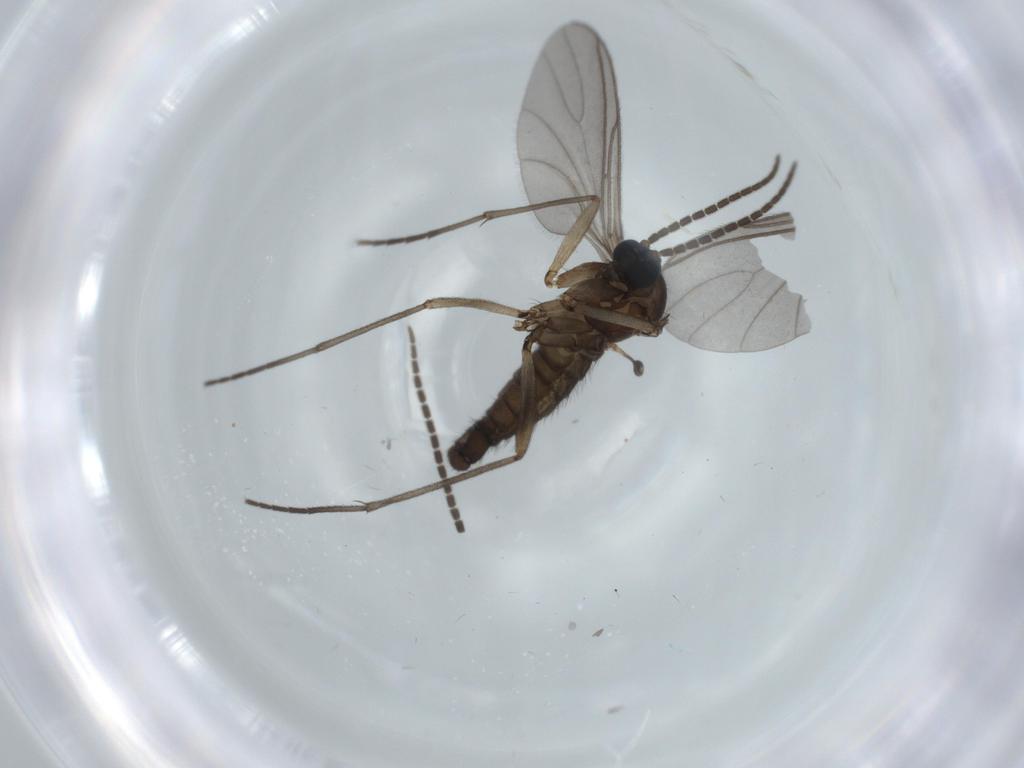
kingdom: Animalia
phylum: Arthropoda
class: Insecta
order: Diptera
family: Sciaridae
